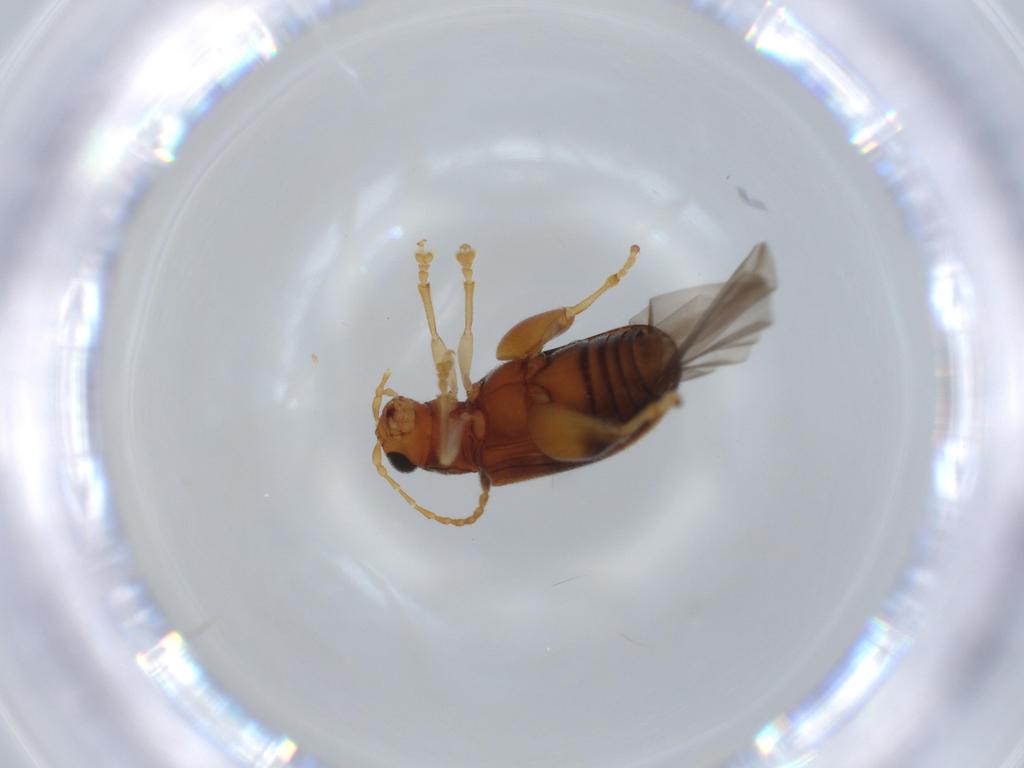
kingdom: Animalia
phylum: Arthropoda
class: Insecta
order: Coleoptera
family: Chrysomelidae
